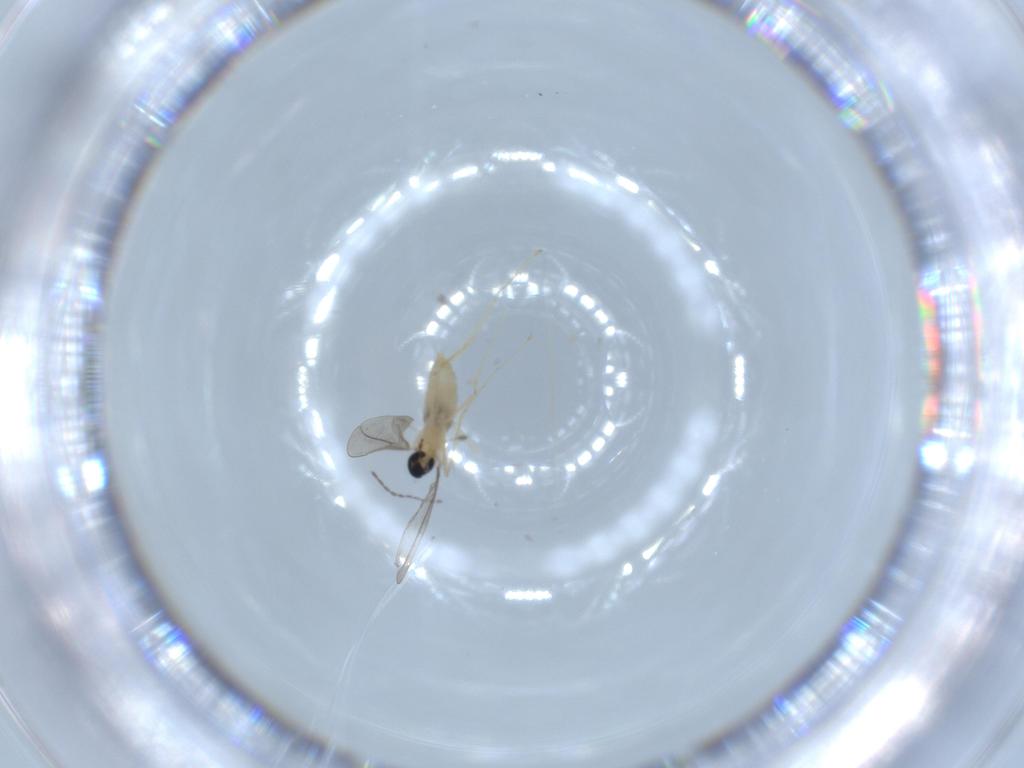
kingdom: Animalia
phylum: Arthropoda
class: Insecta
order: Diptera
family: Cecidomyiidae
